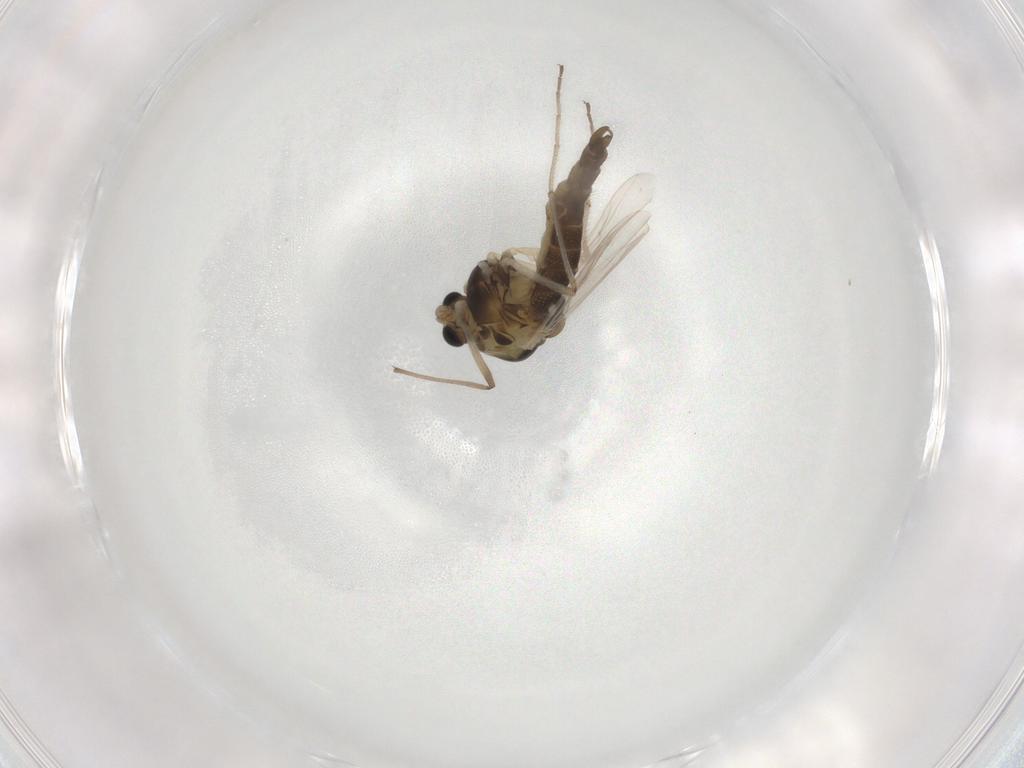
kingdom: Animalia
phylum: Arthropoda
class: Insecta
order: Diptera
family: Chironomidae
